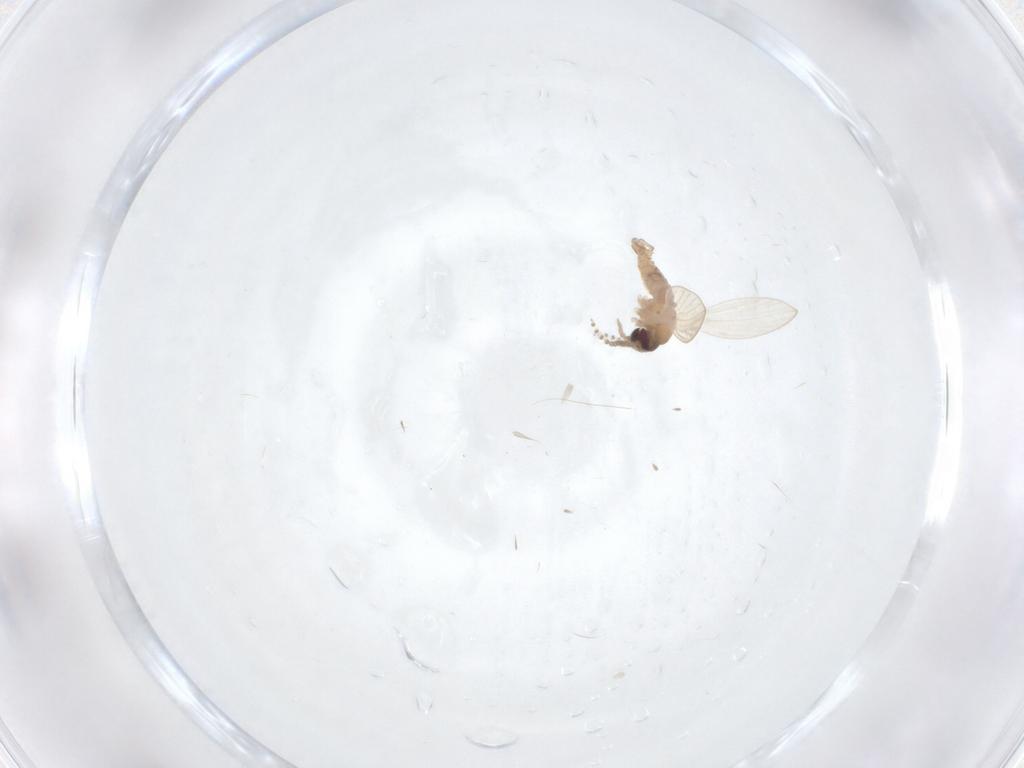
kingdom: Animalia
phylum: Arthropoda
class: Insecta
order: Diptera
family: Psychodidae
